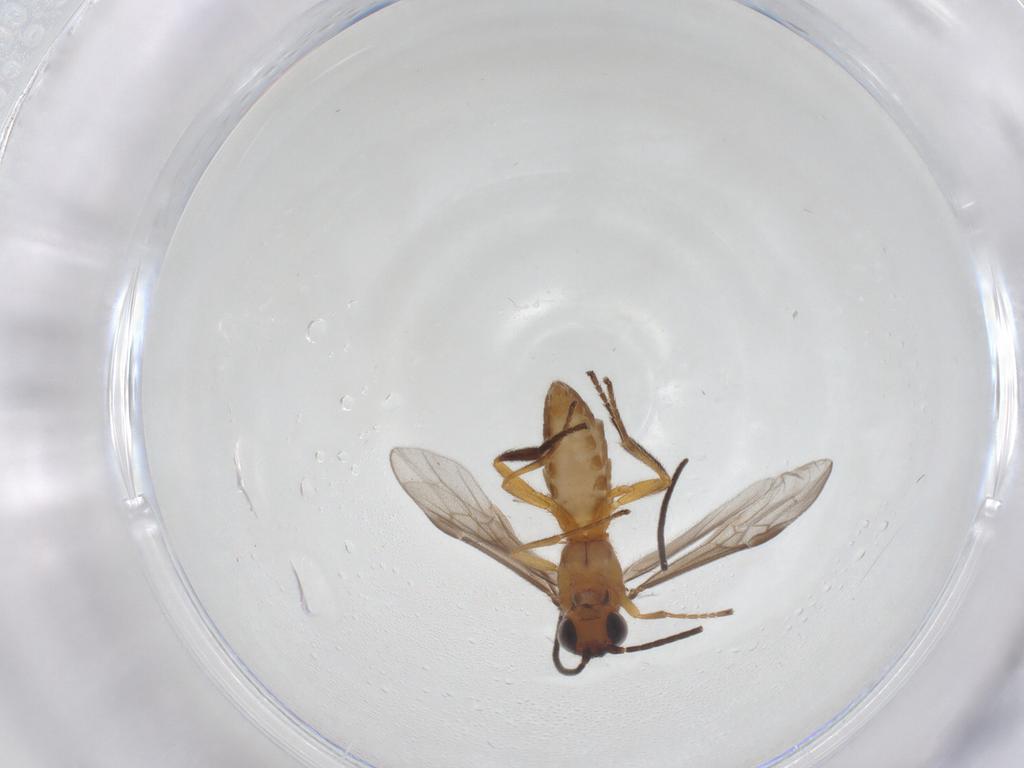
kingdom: Animalia
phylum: Arthropoda
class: Insecta
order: Hymenoptera
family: Braconidae
